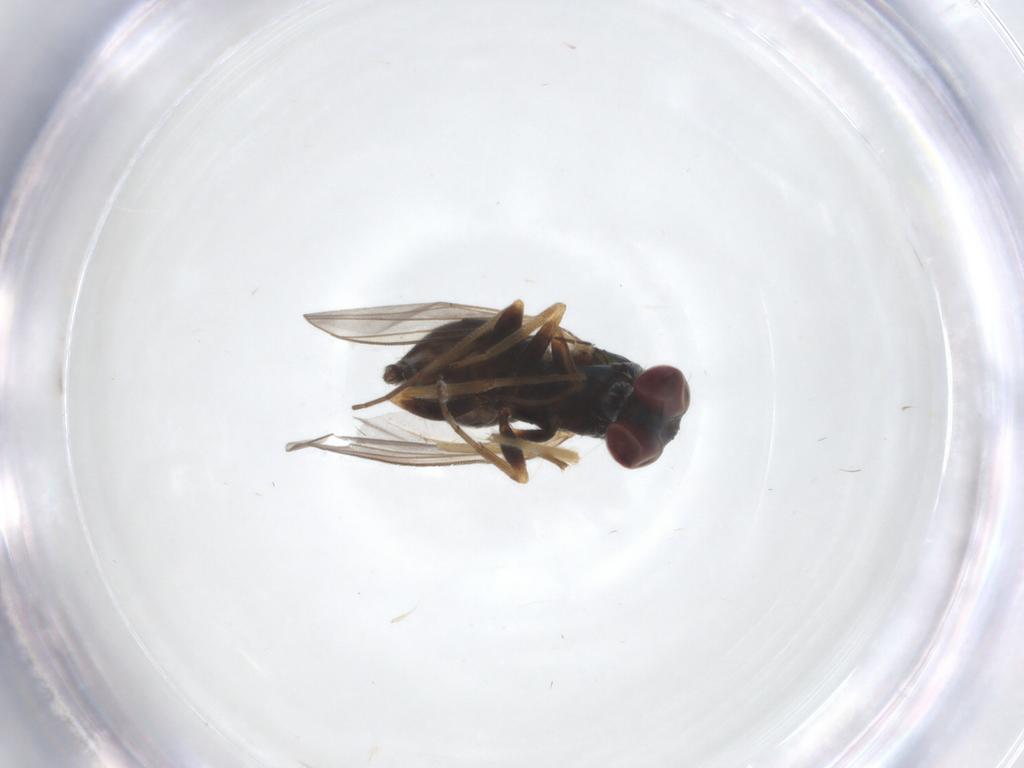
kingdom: Animalia
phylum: Arthropoda
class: Insecta
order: Diptera
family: Dolichopodidae
